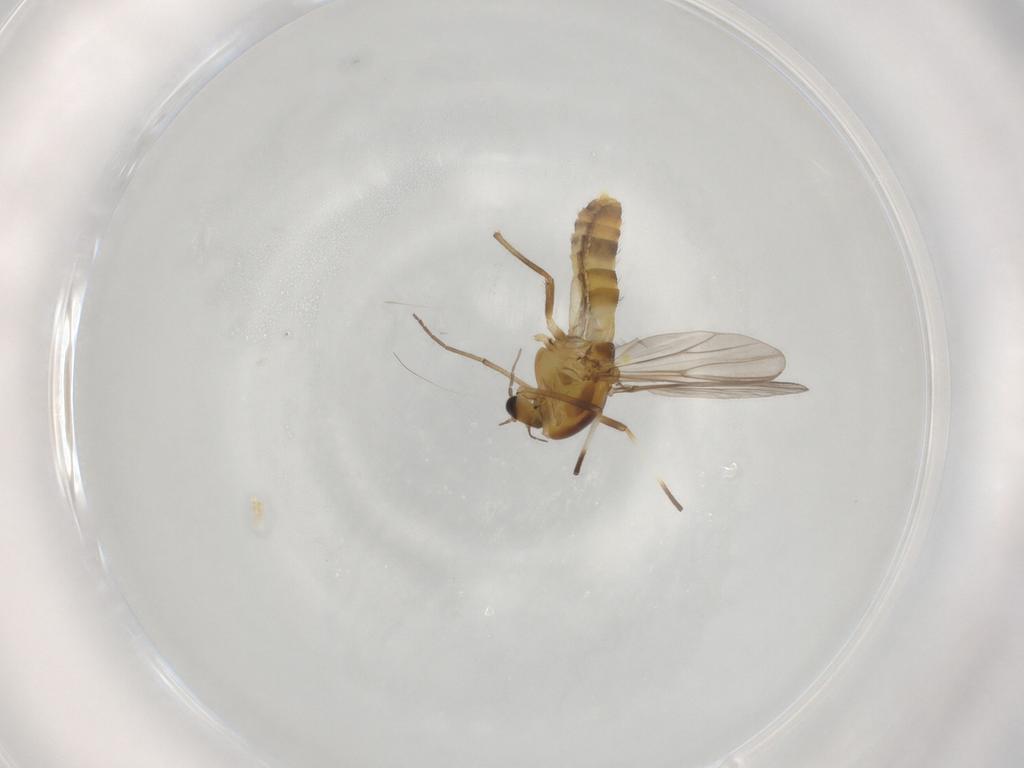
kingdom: Animalia
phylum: Arthropoda
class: Insecta
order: Diptera
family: Chironomidae
